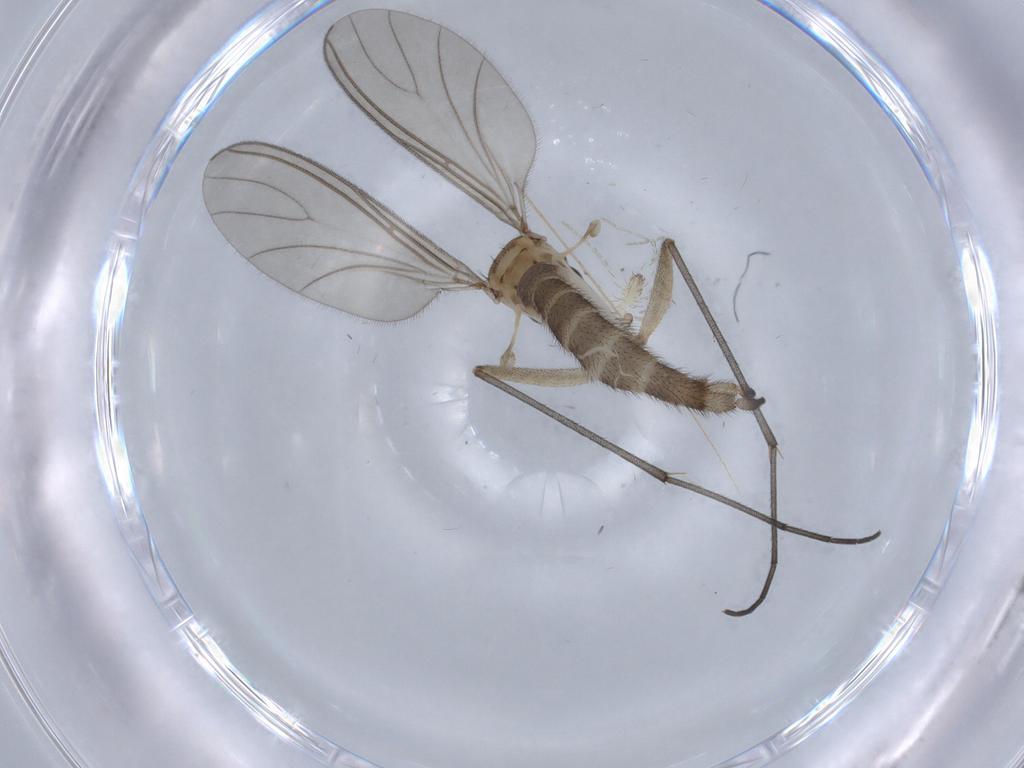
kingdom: Animalia
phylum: Arthropoda
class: Insecta
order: Diptera
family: Sciaridae
